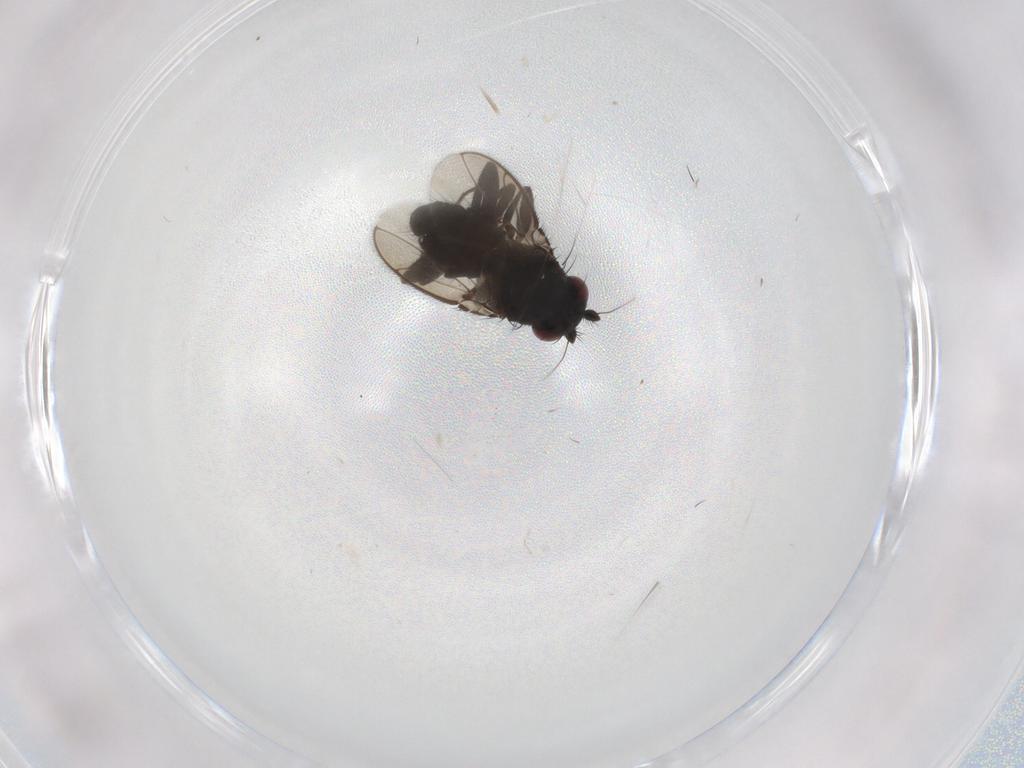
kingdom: Animalia
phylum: Arthropoda
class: Insecta
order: Diptera
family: Sphaeroceridae
